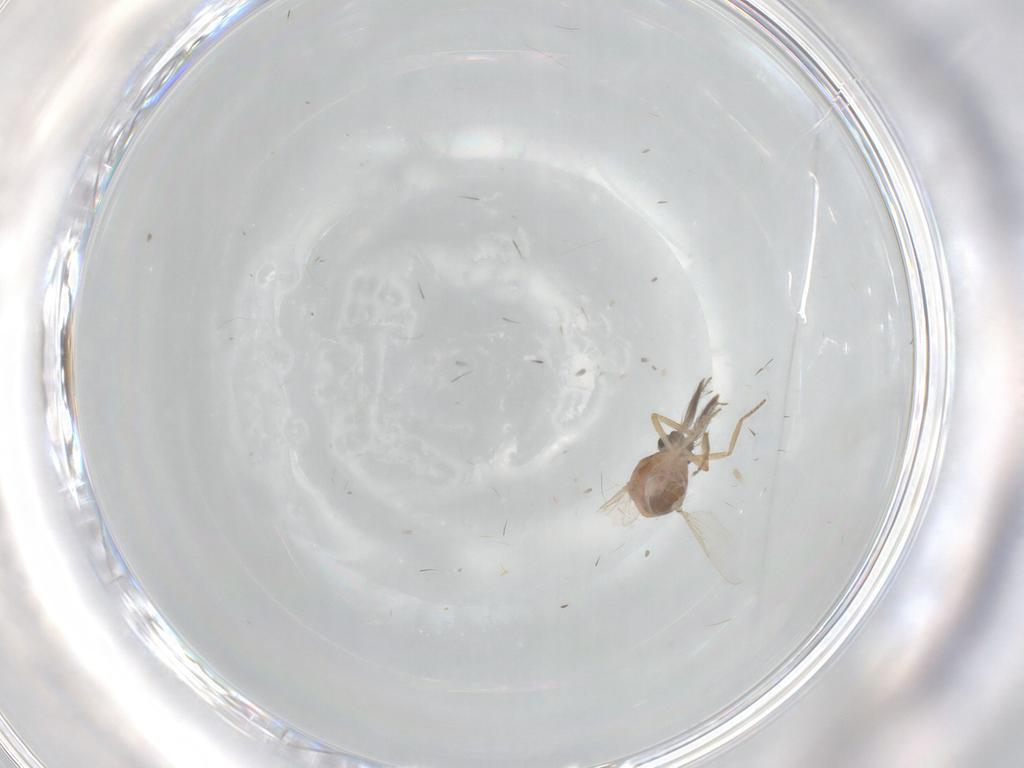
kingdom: Animalia
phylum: Arthropoda
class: Insecta
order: Diptera
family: Ceratopogonidae
